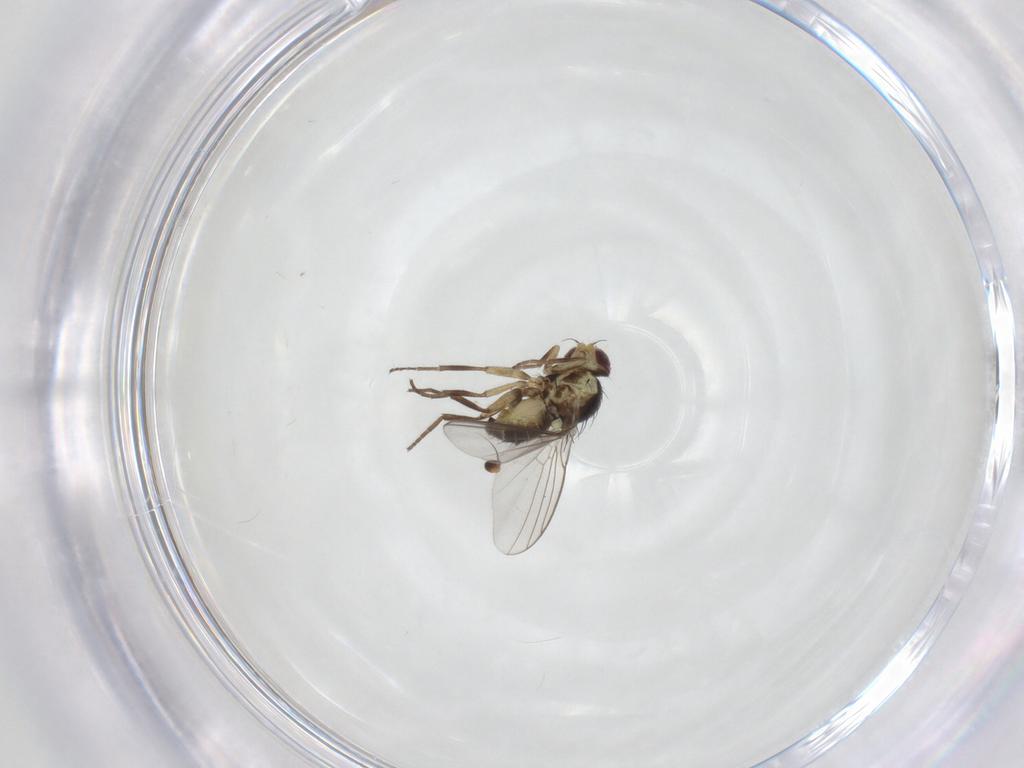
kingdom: Animalia
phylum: Arthropoda
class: Insecta
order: Diptera
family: Agromyzidae
